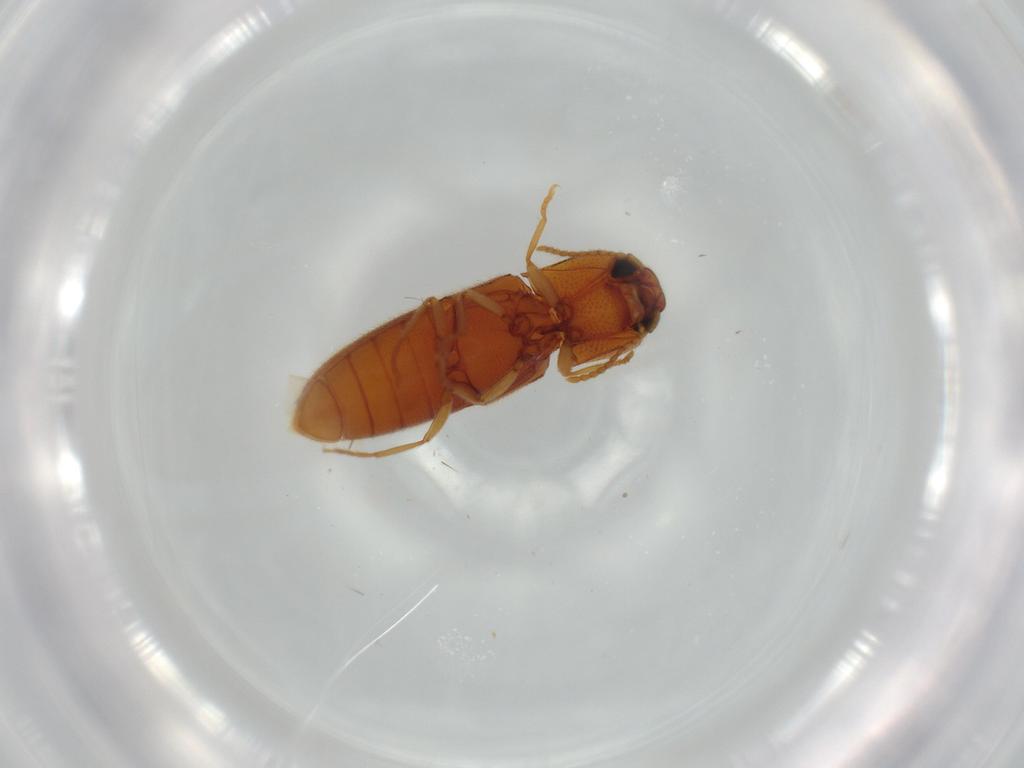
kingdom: Animalia
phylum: Arthropoda
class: Insecta
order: Coleoptera
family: Elateridae
